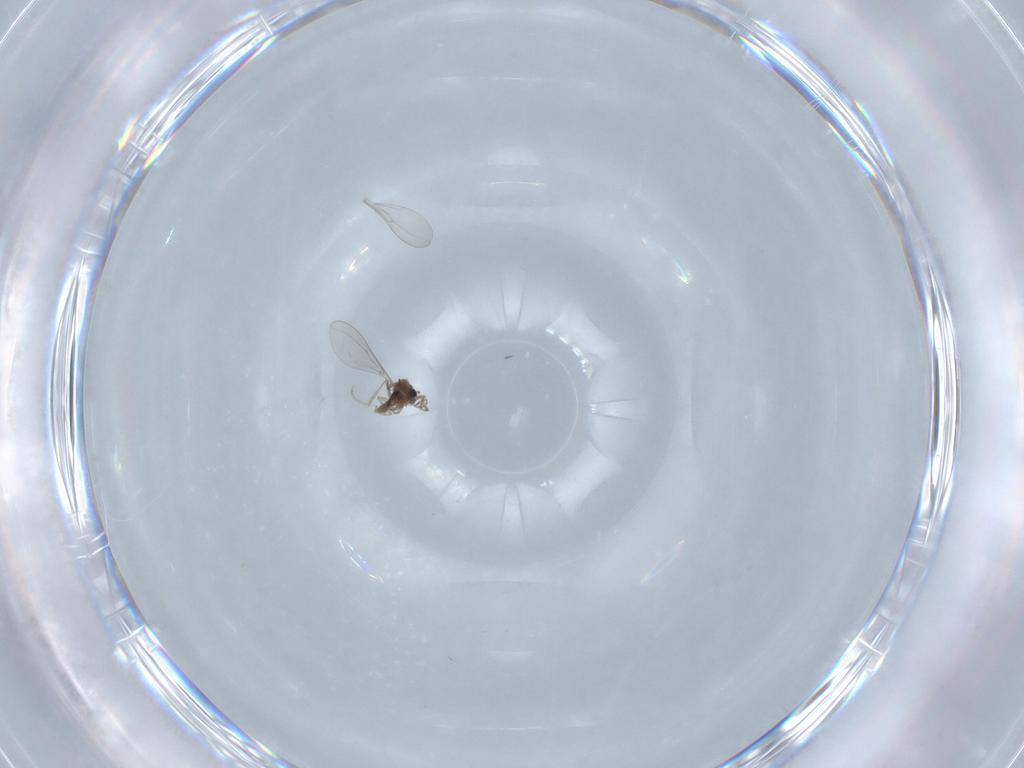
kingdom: Animalia
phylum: Arthropoda
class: Insecta
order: Diptera
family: Cecidomyiidae
